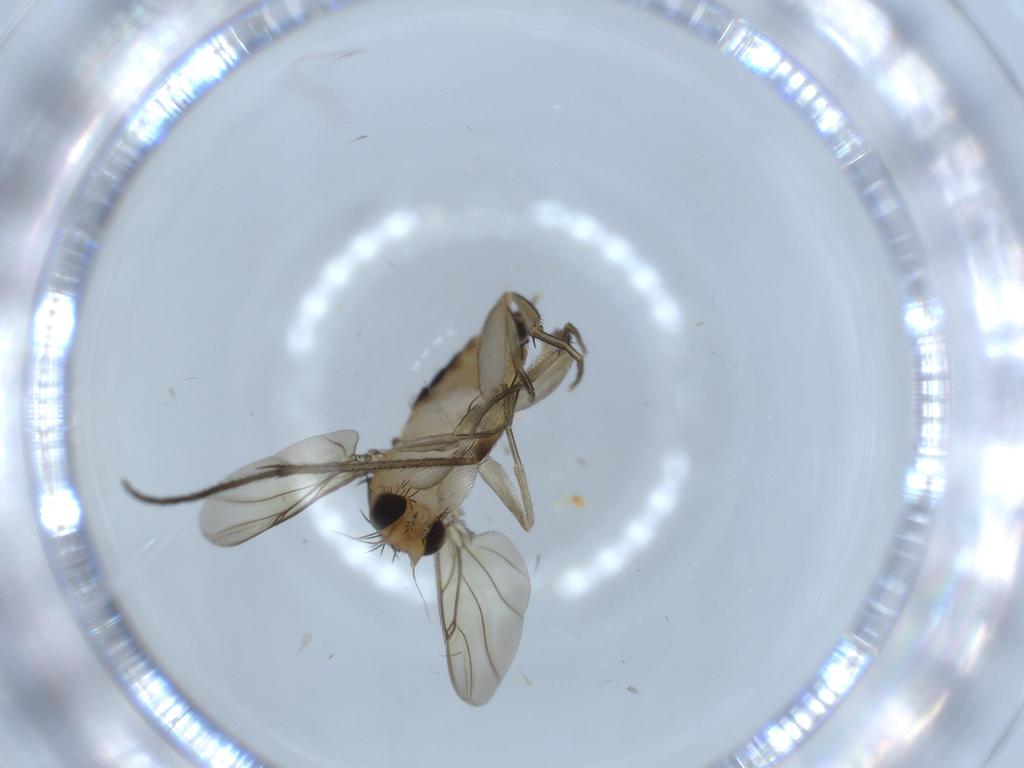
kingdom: Animalia
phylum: Arthropoda
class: Insecta
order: Diptera
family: Phoridae
